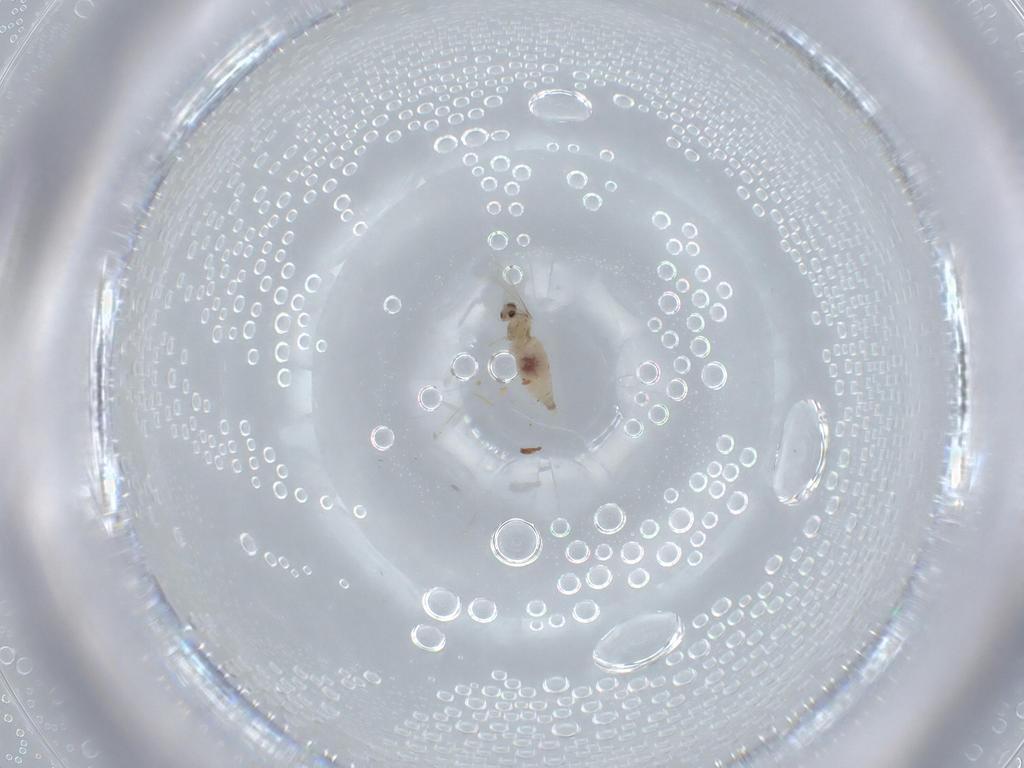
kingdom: Animalia
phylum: Arthropoda
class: Insecta
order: Diptera
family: Cecidomyiidae
